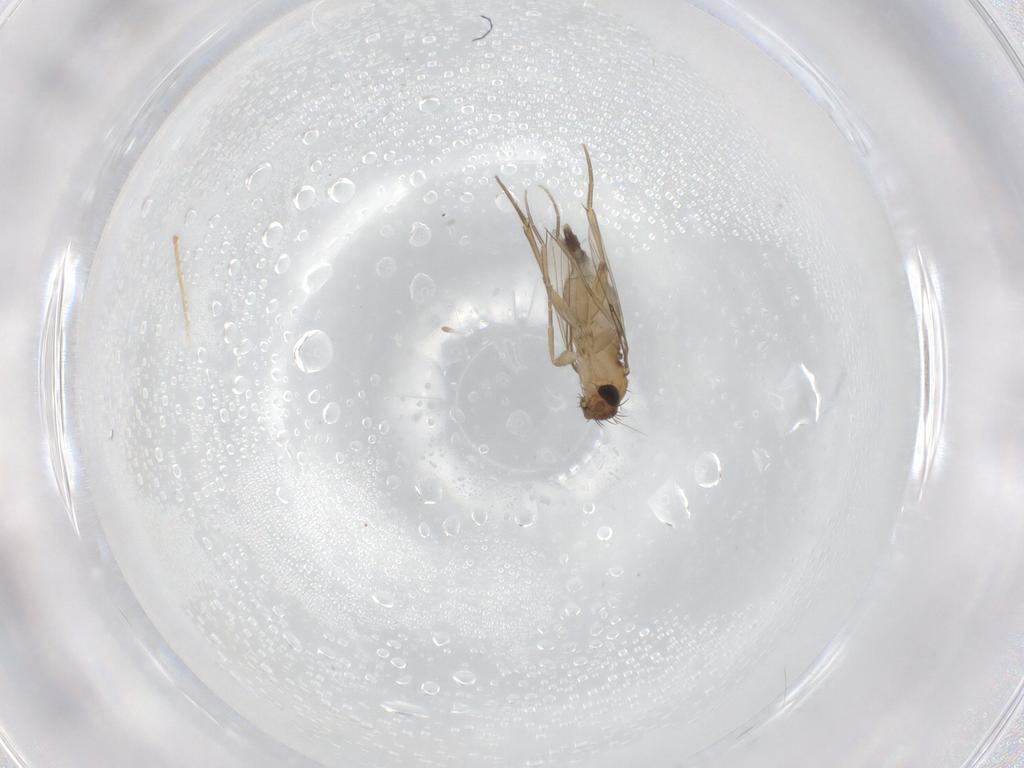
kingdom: Animalia
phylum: Arthropoda
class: Insecta
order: Diptera
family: Phoridae
